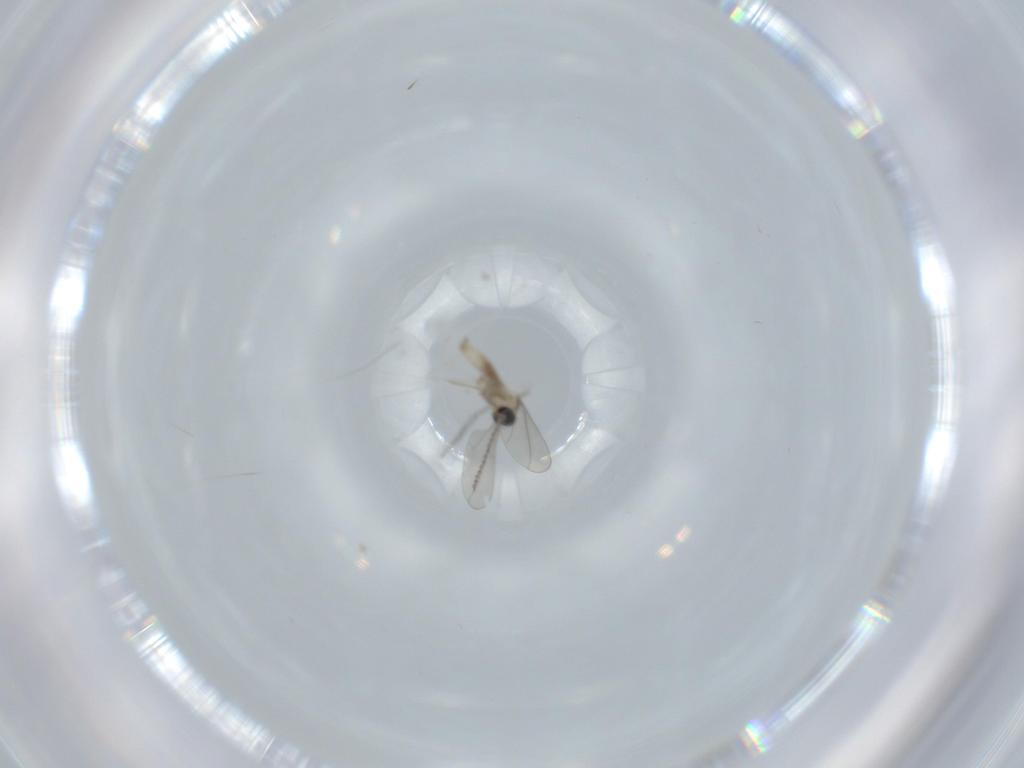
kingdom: Animalia
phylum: Arthropoda
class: Insecta
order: Diptera
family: Cecidomyiidae
